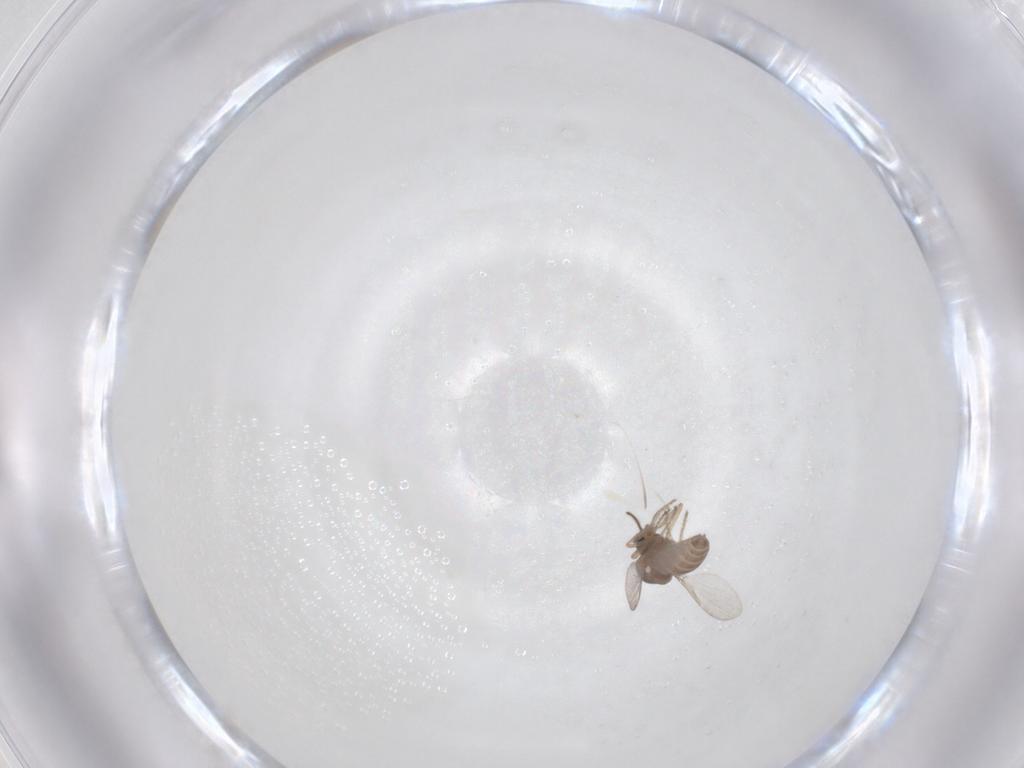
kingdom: Animalia
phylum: Arthropoda
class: Insecta
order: Diptera
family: Ceratopogonidae
